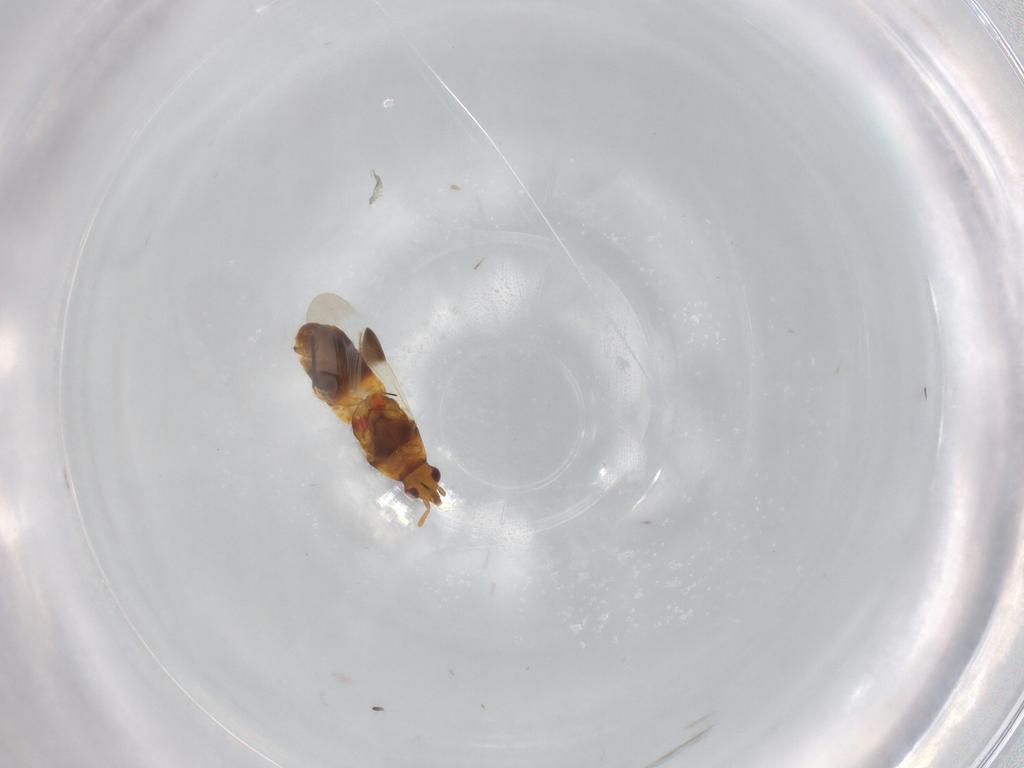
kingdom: Animalia
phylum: Arthropoda
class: Insecta
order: Hemiptera
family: Anthocoridae
